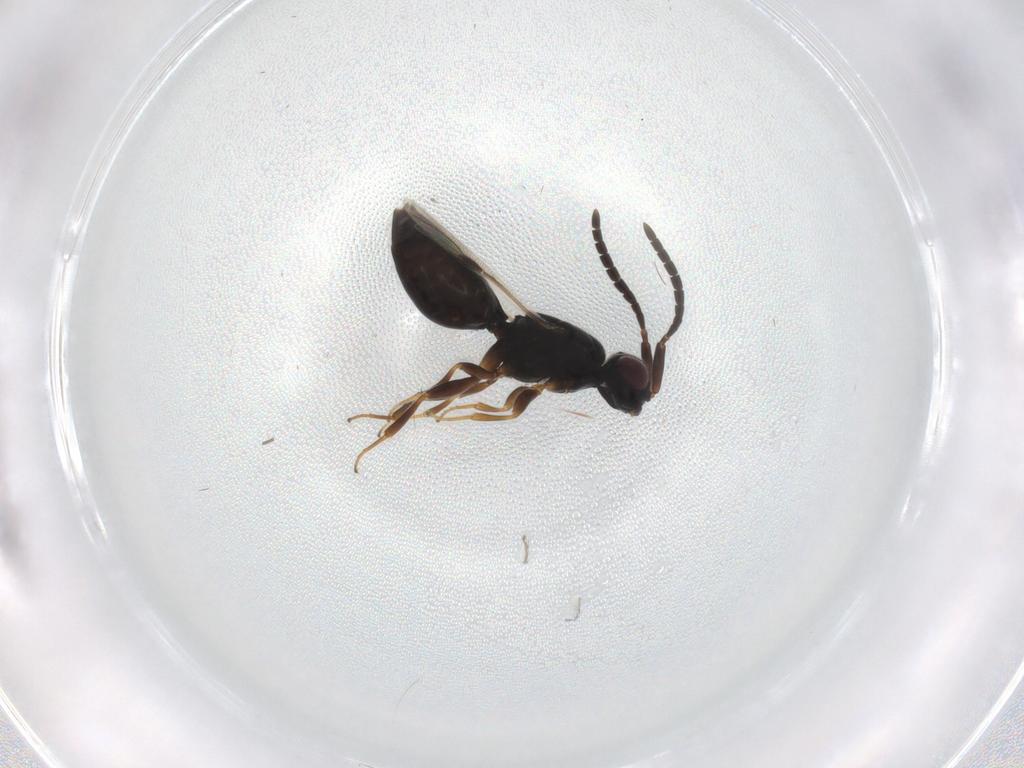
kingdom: Animalia
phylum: Arthropoda
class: Insecta
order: Hymenoptera
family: Megaspilidae
